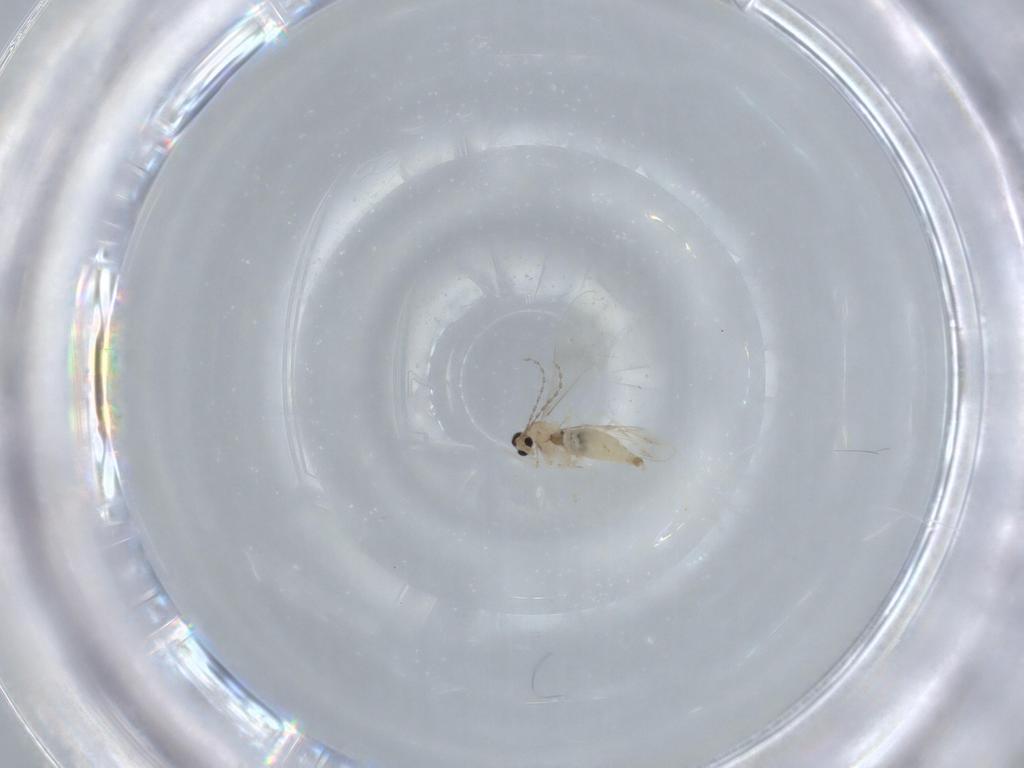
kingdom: Animalia
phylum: Arthropoda
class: Insecta
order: Diptera
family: Cecidomyiidae
